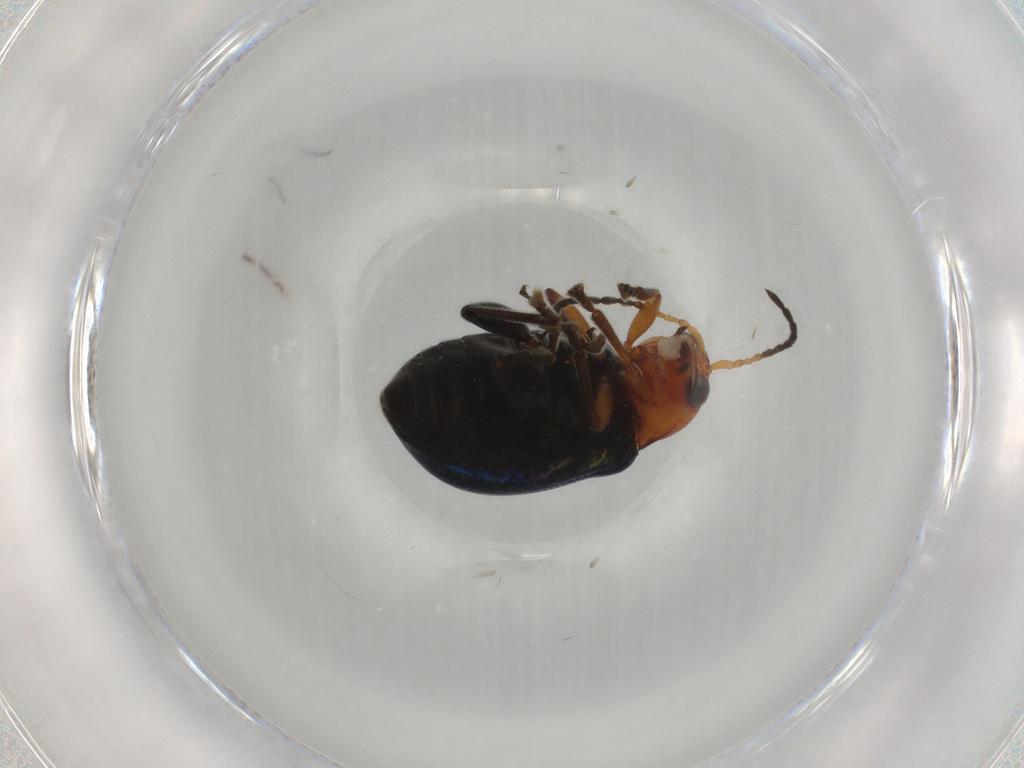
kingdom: Animalia
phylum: Arthropoda
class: Insecta
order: Coleoptera
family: Chrysomelidae
